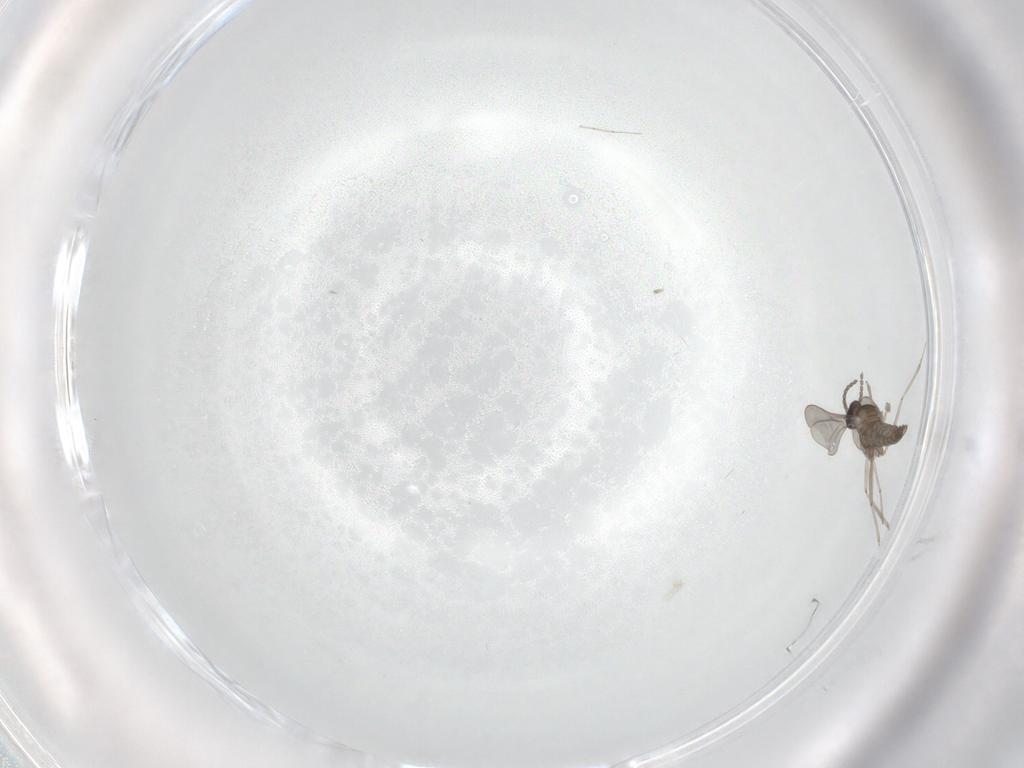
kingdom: Animalia
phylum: Arthropoda
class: Insecta
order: Diptera
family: Cecidomyiidae
